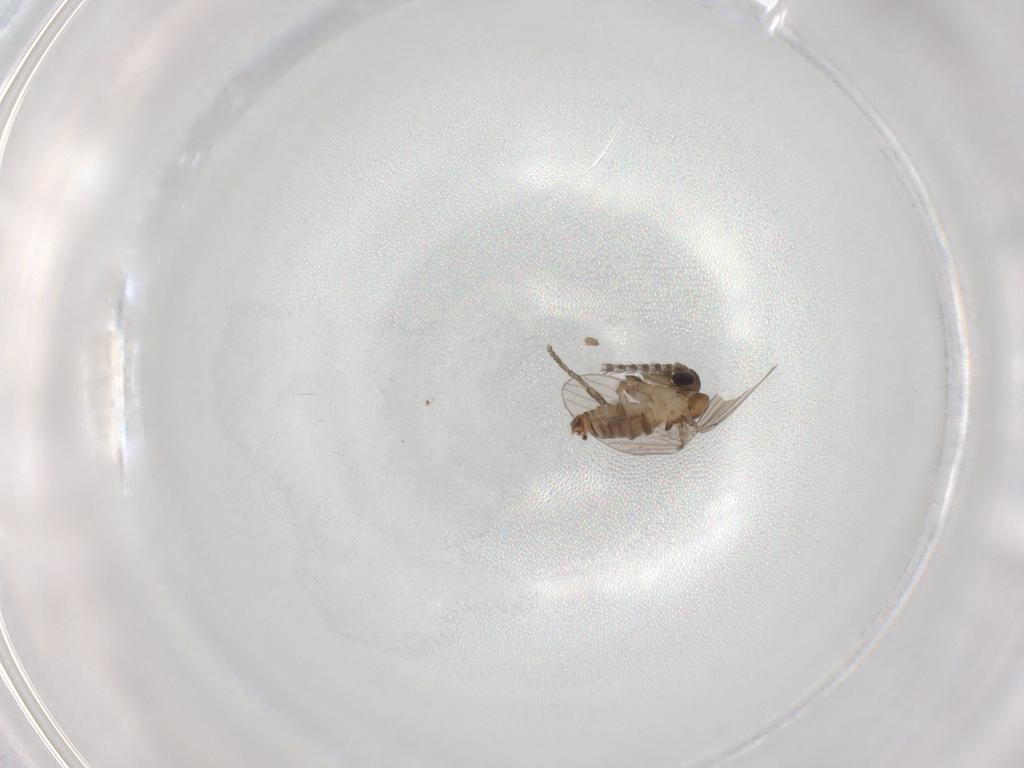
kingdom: Animalia
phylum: Arthropoda
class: Insecta
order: Diptera
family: Psychodidae
